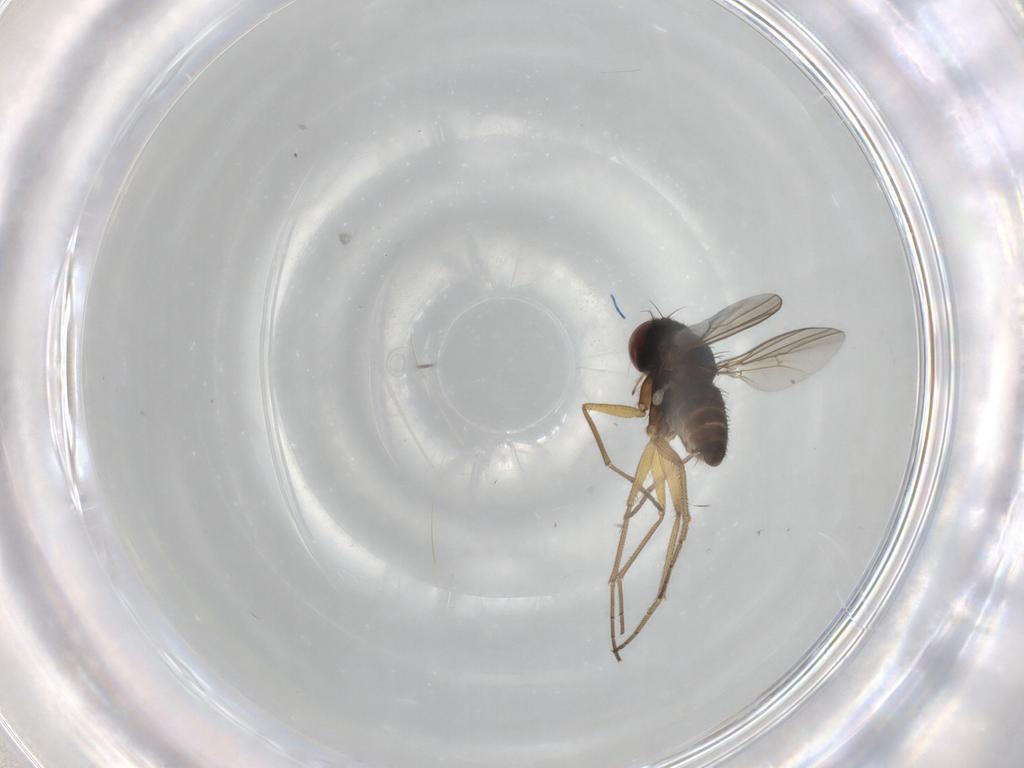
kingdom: Animalia
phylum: Arthropoda
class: Insecta
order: Diptera
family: Dolichopodidae
